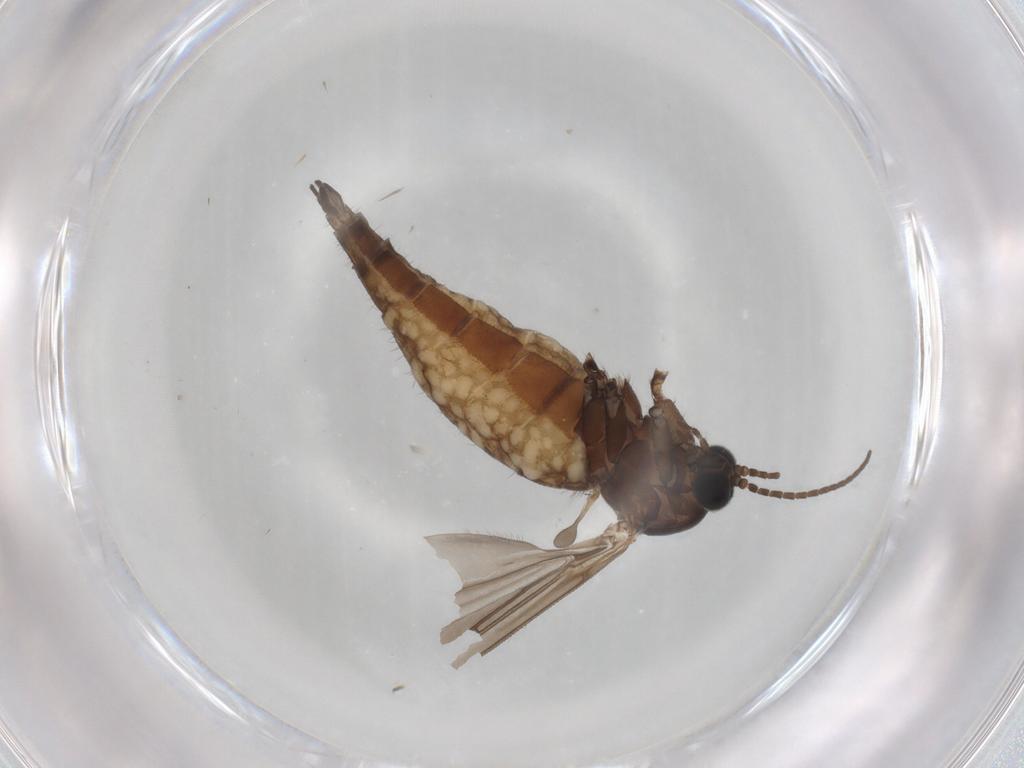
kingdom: Animalia
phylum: Arthropoda
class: Insecta
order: Diptera
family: Sciaridae
